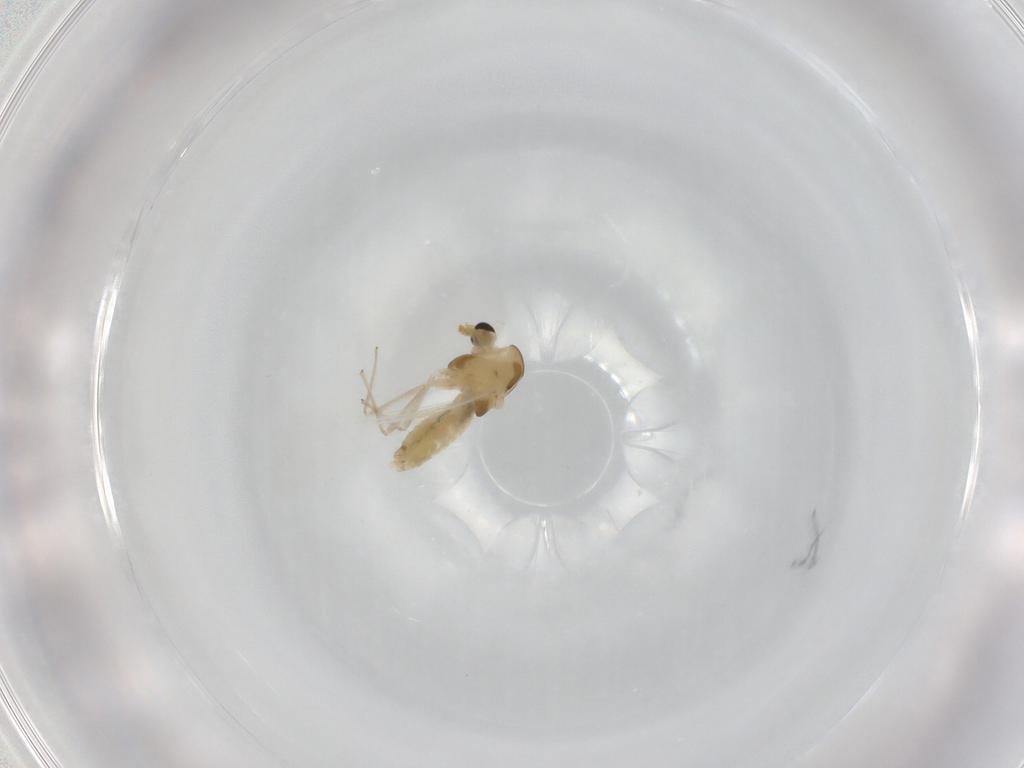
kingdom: Animalia
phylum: Arthropoda
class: Insecta
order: Diptera
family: Chironomidae
